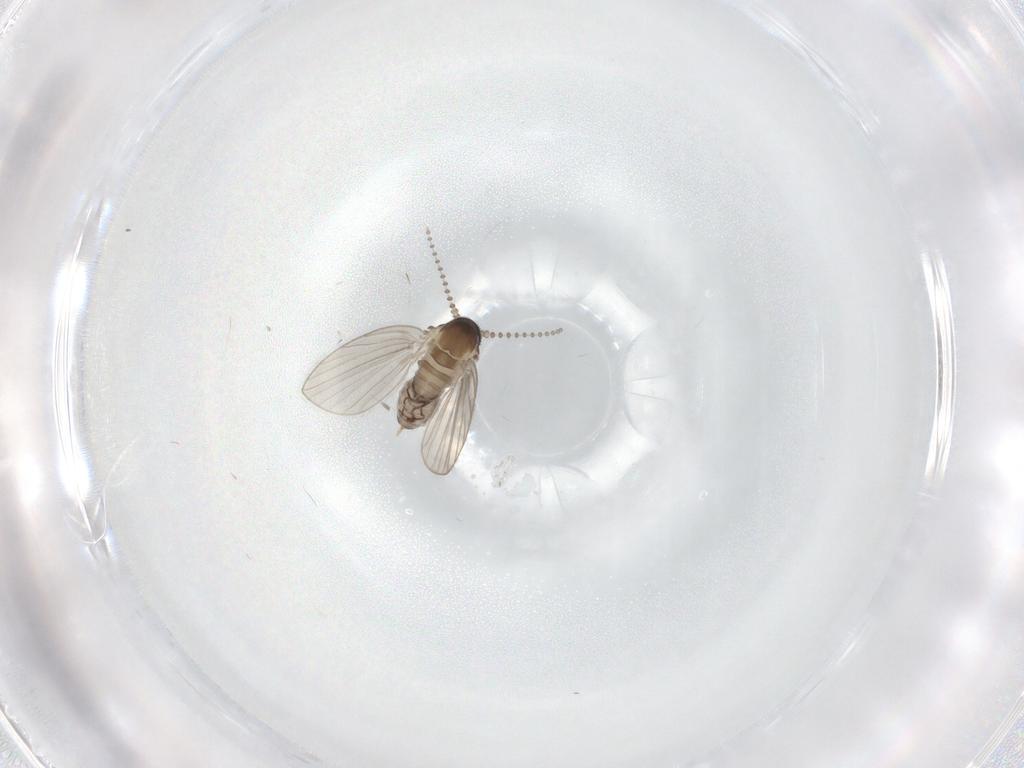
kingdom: Animalia
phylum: Arthropoda
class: Insecta
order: Diptera
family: Psychodidae
